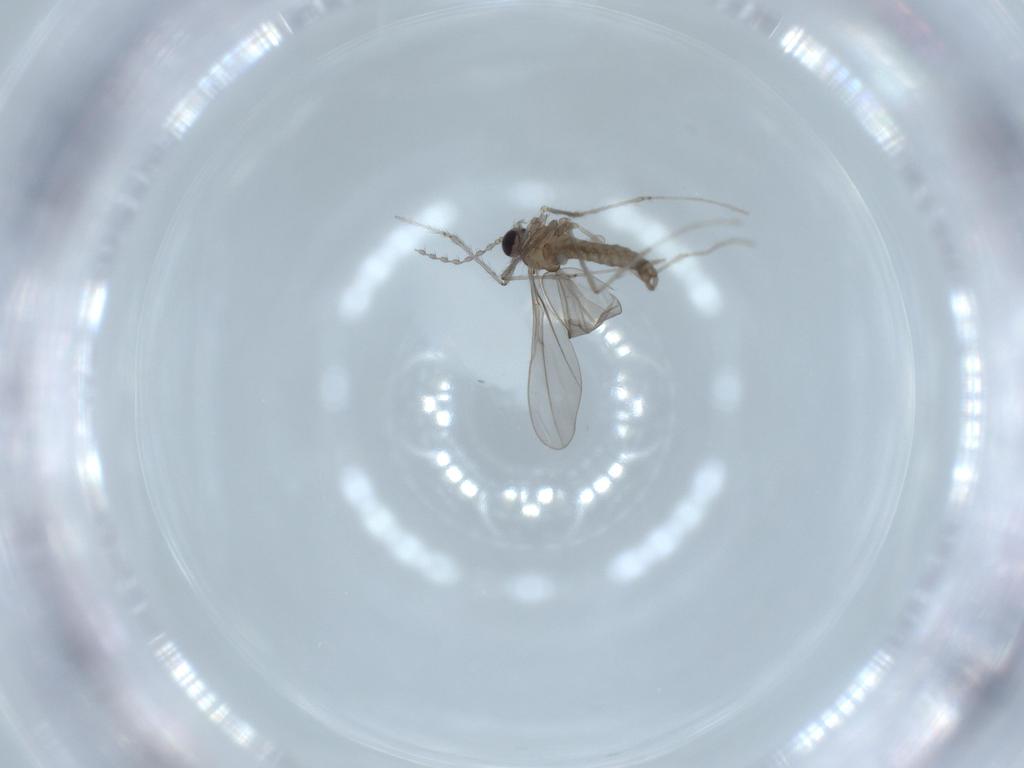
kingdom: Animalia
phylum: Arthropoda
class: Insecta
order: Diptera
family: Cecidomyiidae
